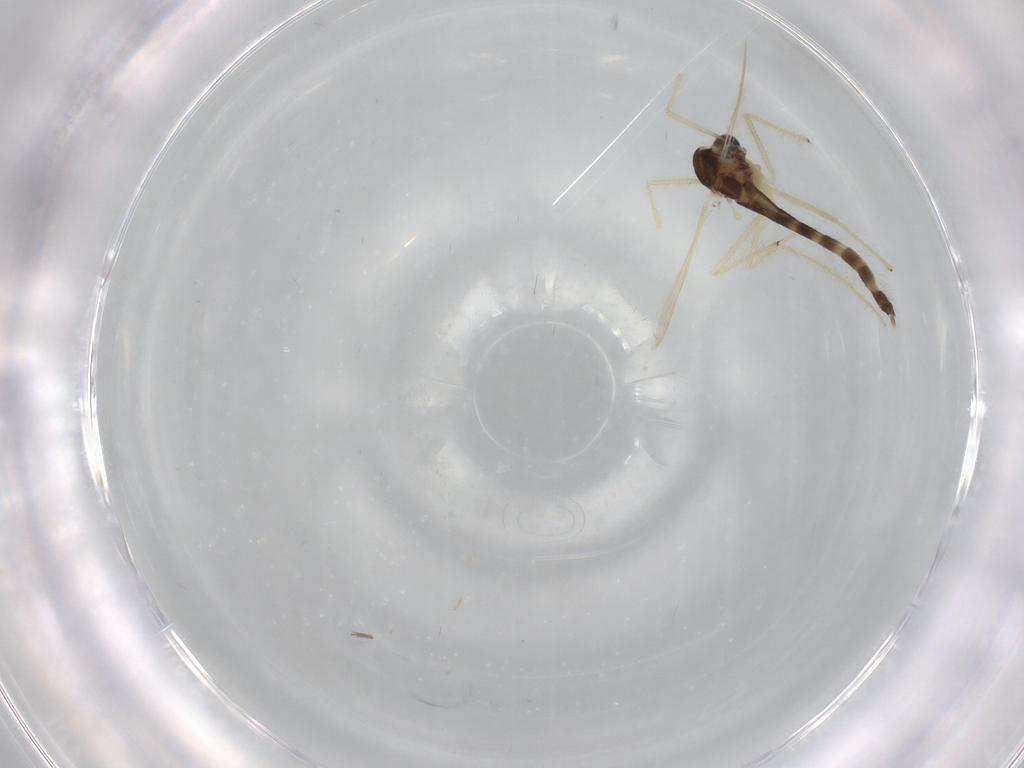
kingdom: Animalia
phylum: Arthropoda
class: Insecta
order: Diptera
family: Chironomidae
